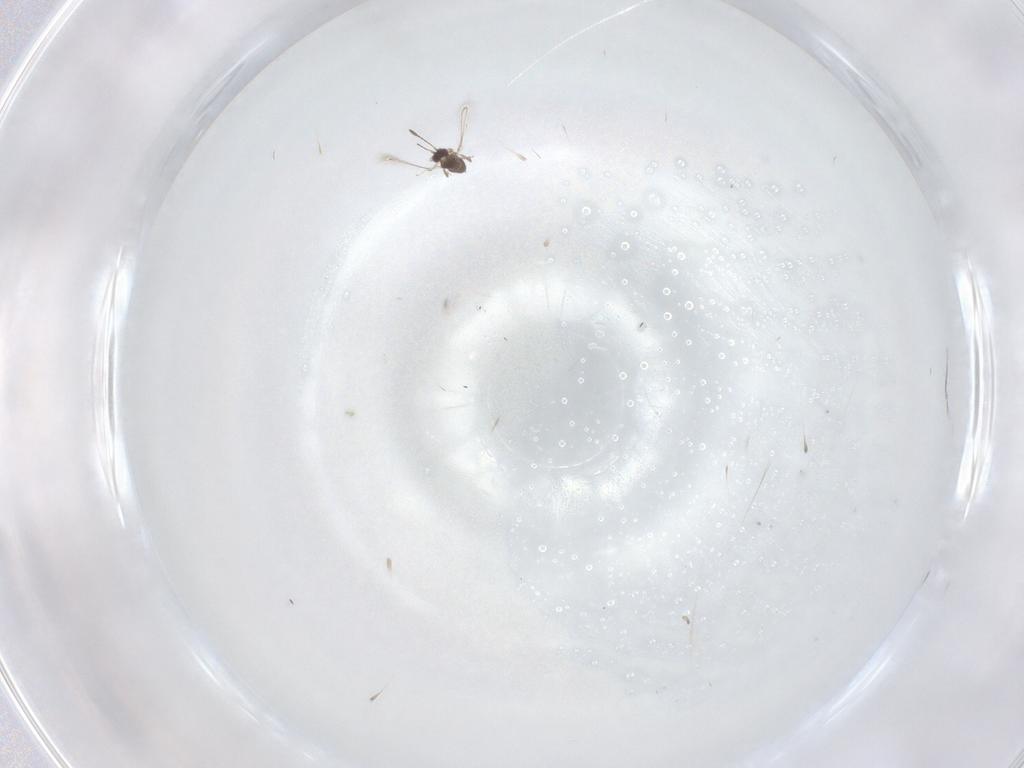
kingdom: Animalia
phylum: Arthropoda
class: Insecta
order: Hymenoptera
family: Scelionidae
